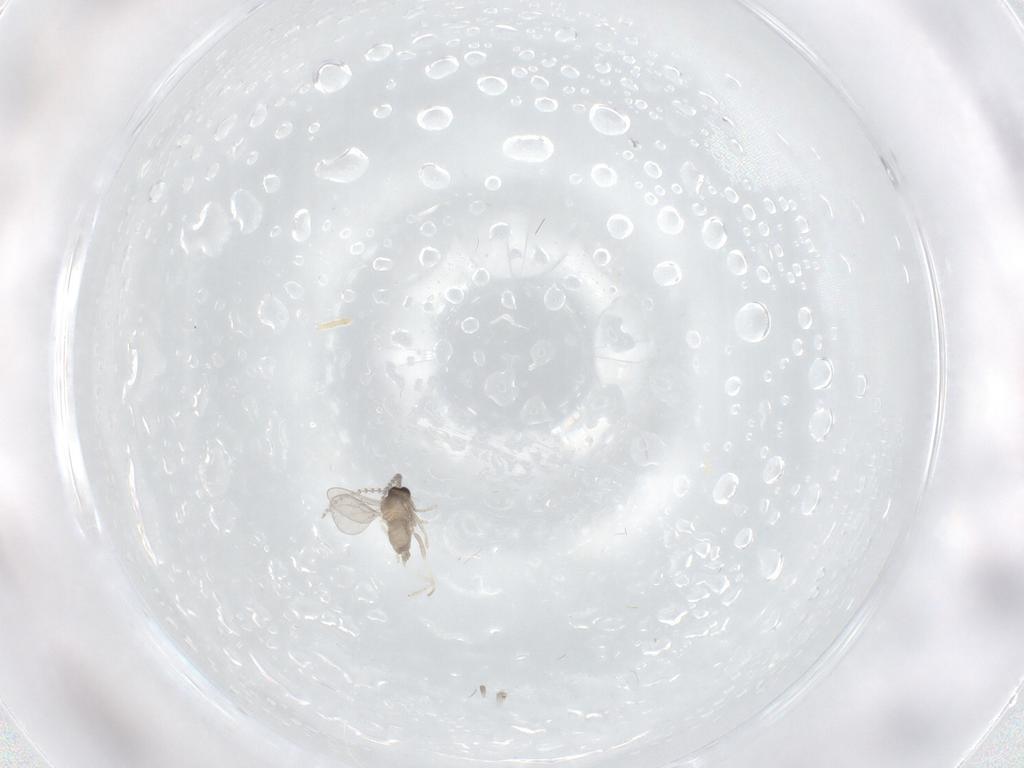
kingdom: Animalia
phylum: Arthropoda
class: Insecta
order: Diptera
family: Cecidomyiidae
